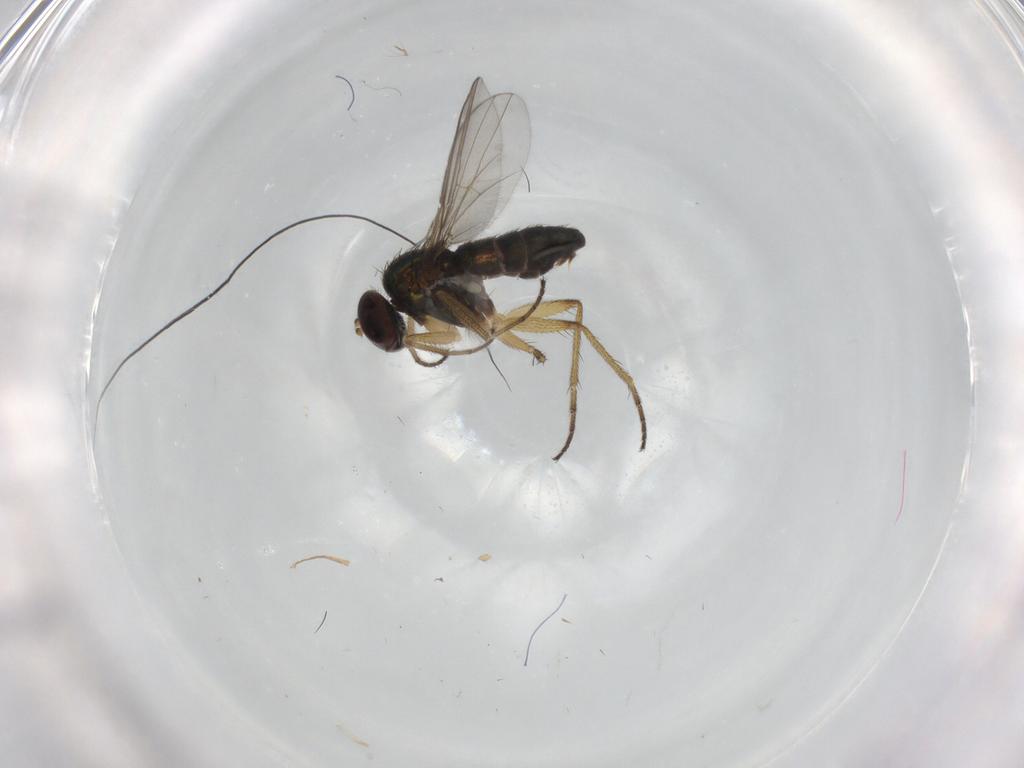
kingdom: Animalia
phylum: Arthropoda
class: Insecta
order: Diptera
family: Dolichopodidae
